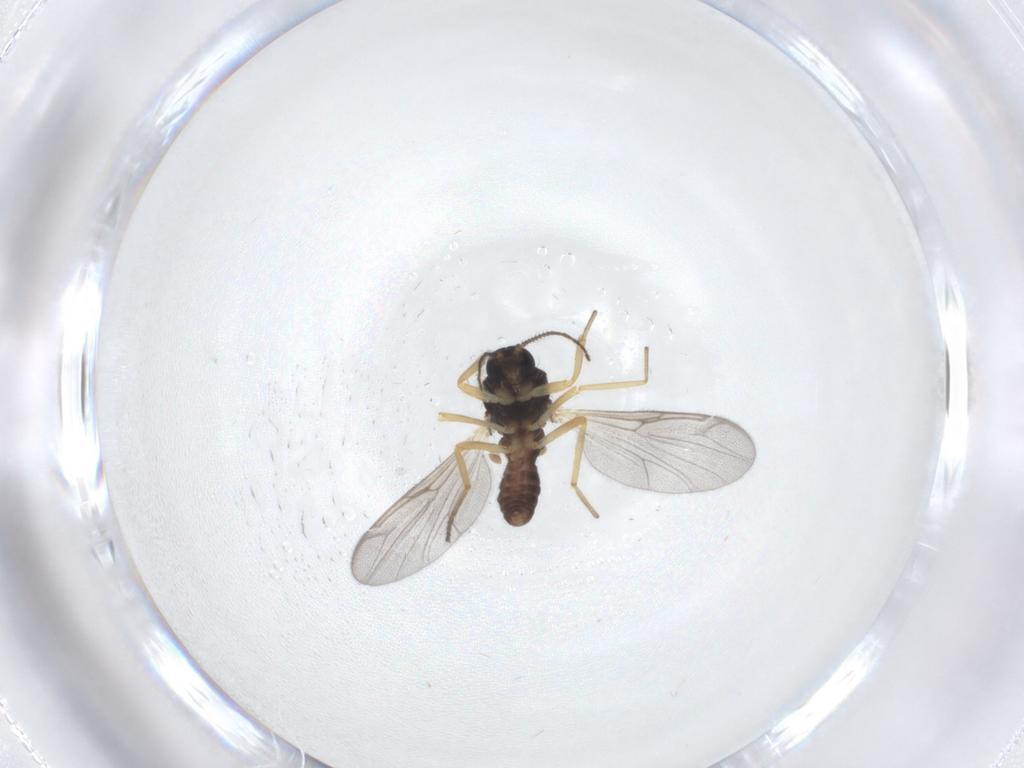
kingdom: Animalia
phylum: Arthropoda
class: Insecta
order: Diptera
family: Ceratopogonidae
